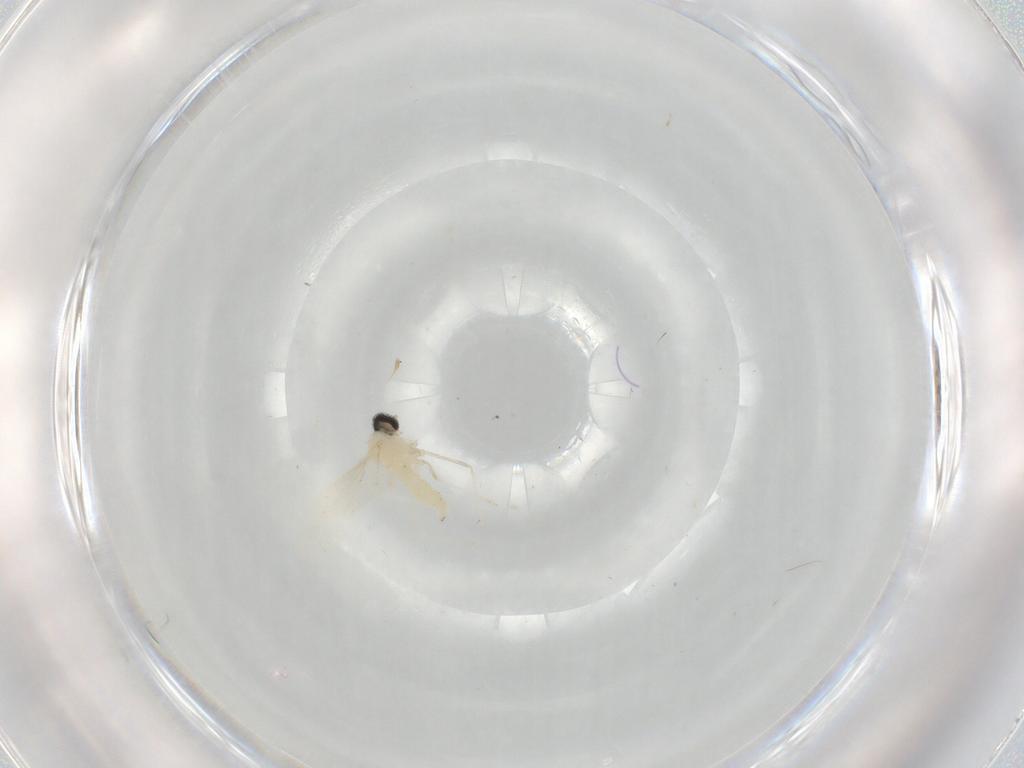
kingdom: Animalia
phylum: Arthropoda
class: Insecta
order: Diptera
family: Cecidomyiidae
